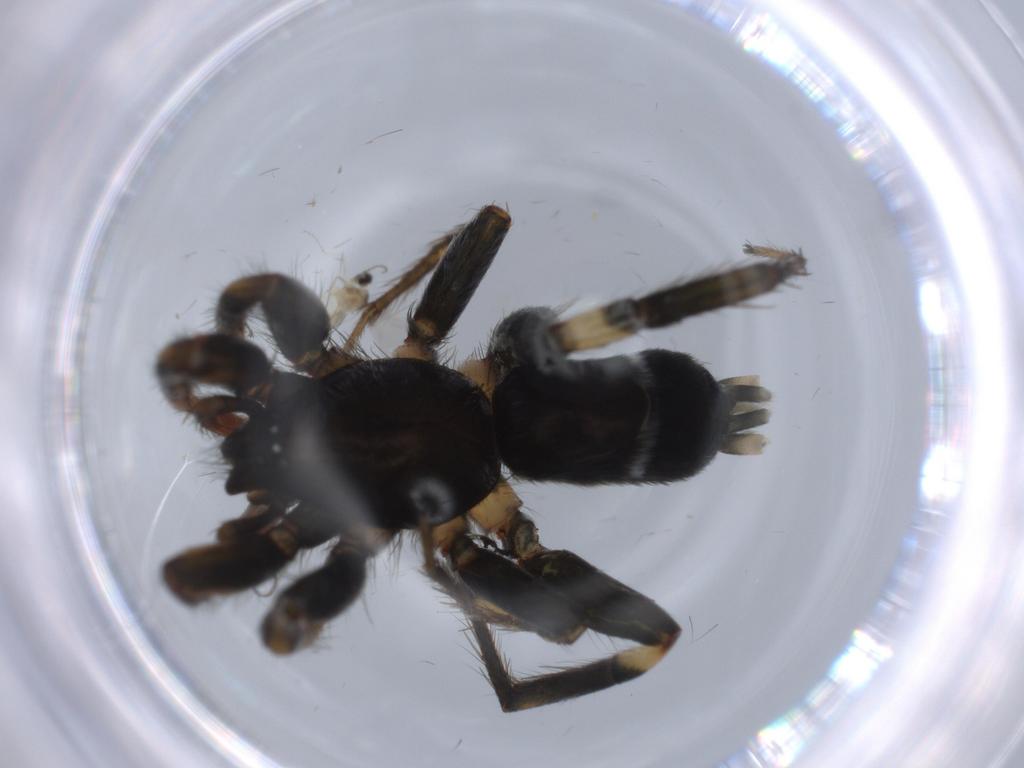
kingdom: Animalia
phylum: Arthropoda
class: Arachnida
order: Araneae
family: Gnaphosidae
